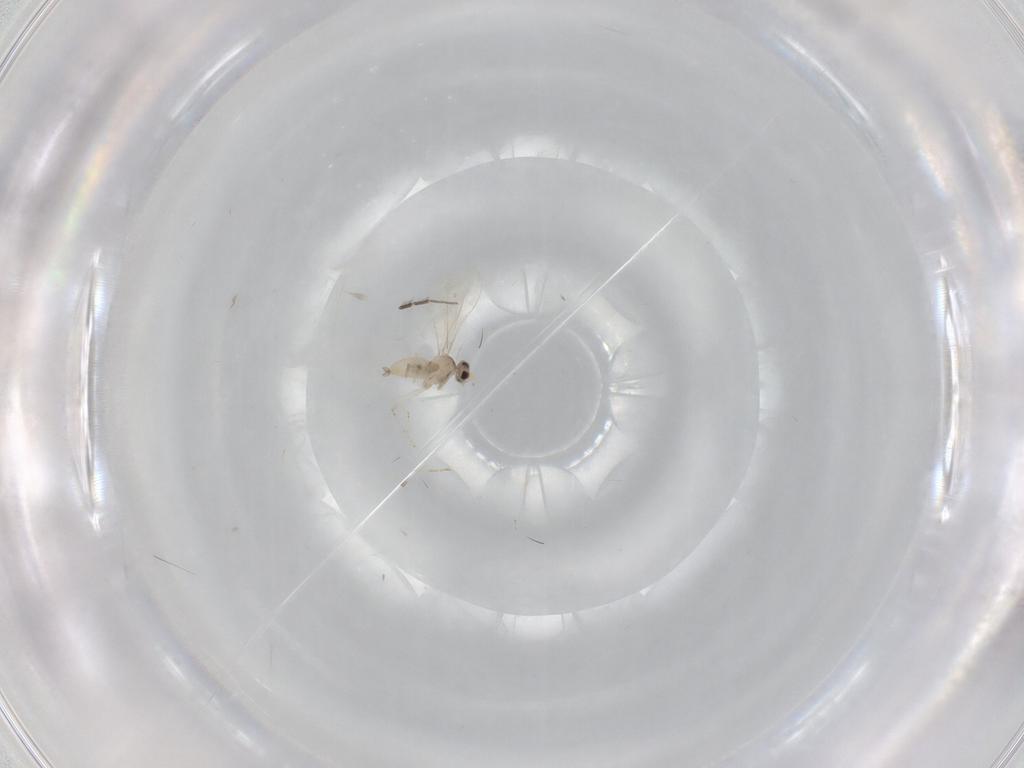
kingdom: Animalia
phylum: Arthropoda
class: Insecta
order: Diptera
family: Cecidomyiidae
